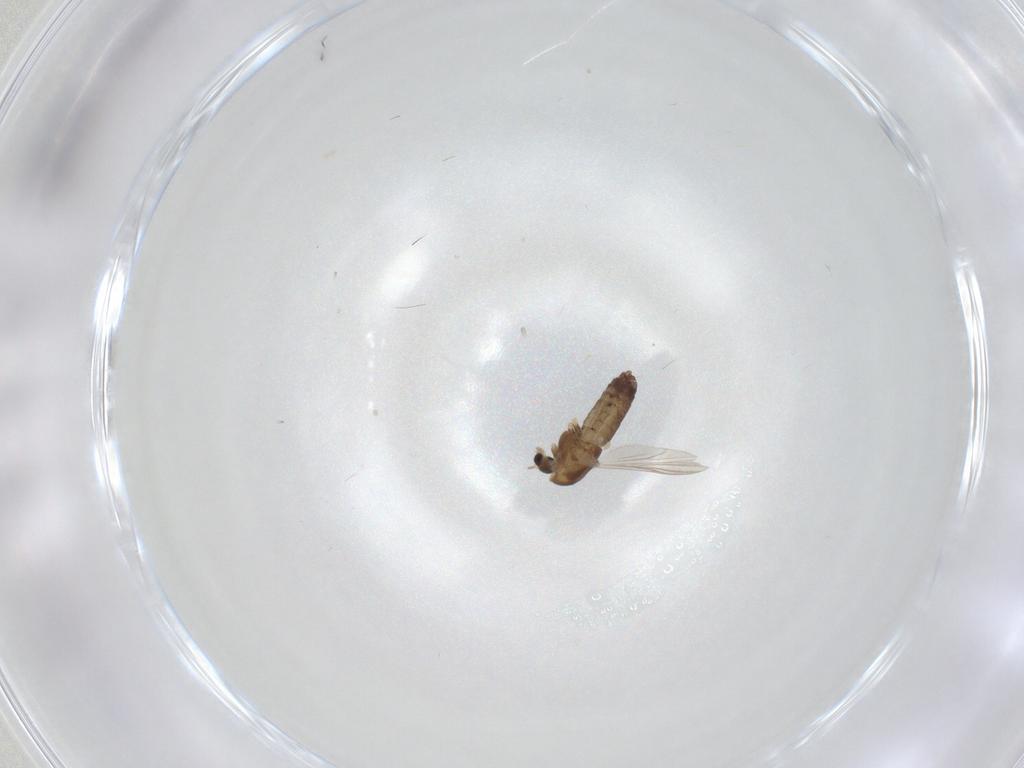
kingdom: Animalia
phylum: Arthropoda
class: Insecta
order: Diptera
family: Chironomidae
